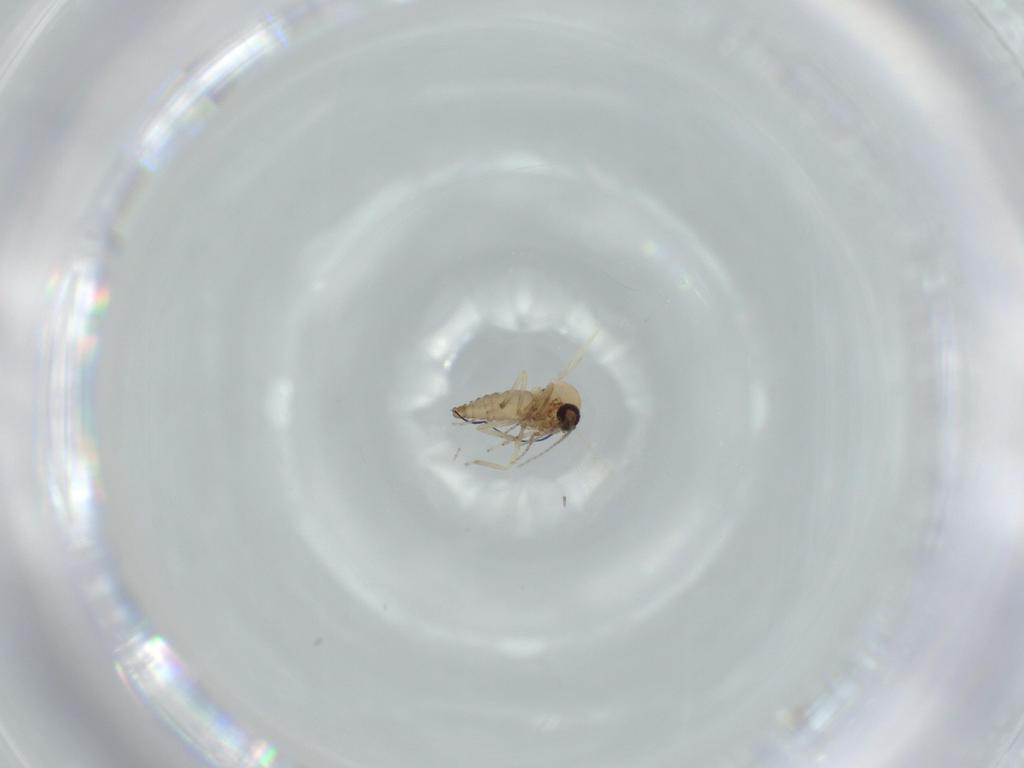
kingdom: Animalia
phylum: Arthropoda
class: Insecta
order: Diptera
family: Ceratopogonidae
